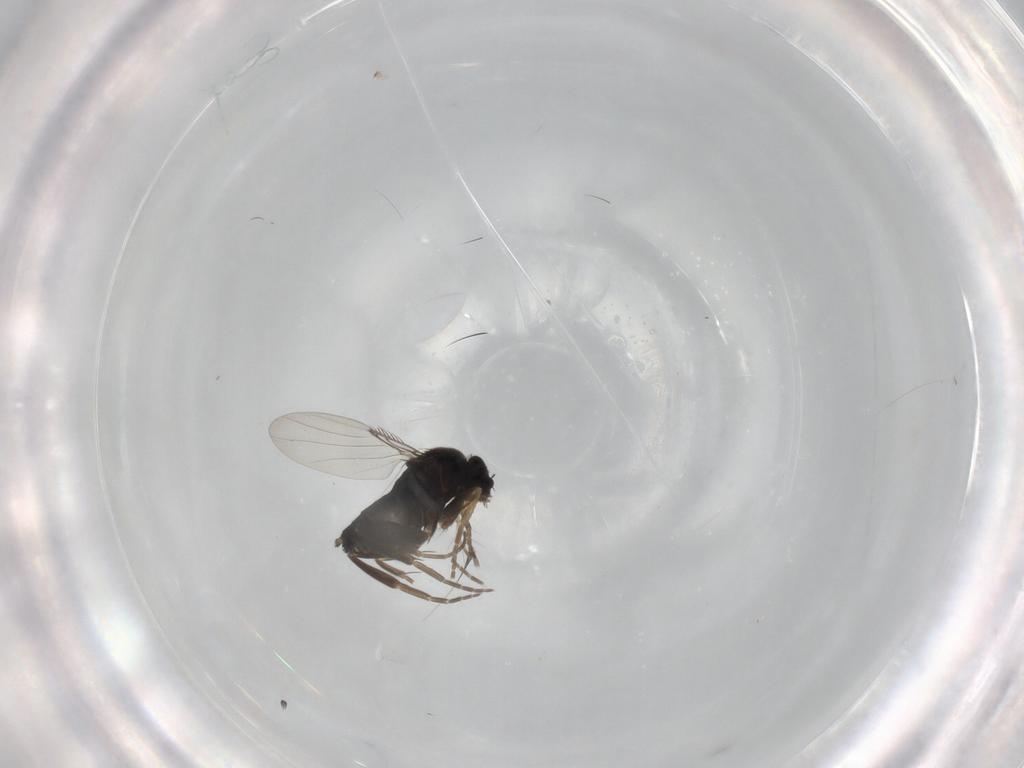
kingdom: Animalia
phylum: Arthropoda
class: Insecta
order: Diptera
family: Phoridae
